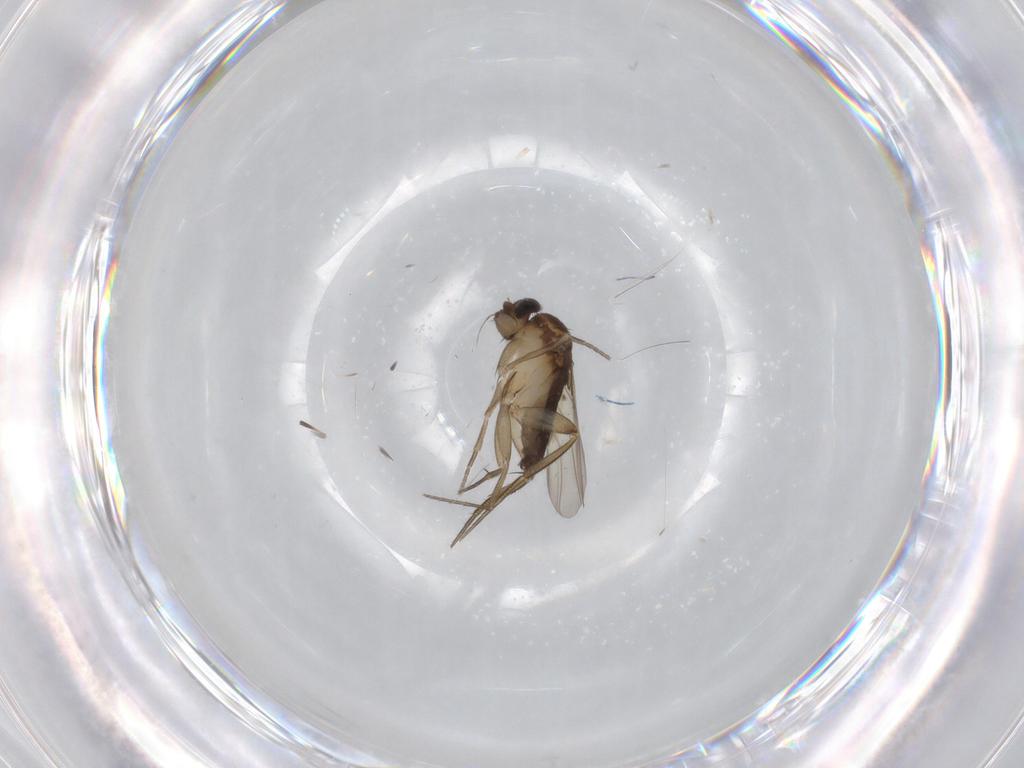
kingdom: Animalia
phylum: Arthropoda
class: Insecta
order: Diptera
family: Phoridae
